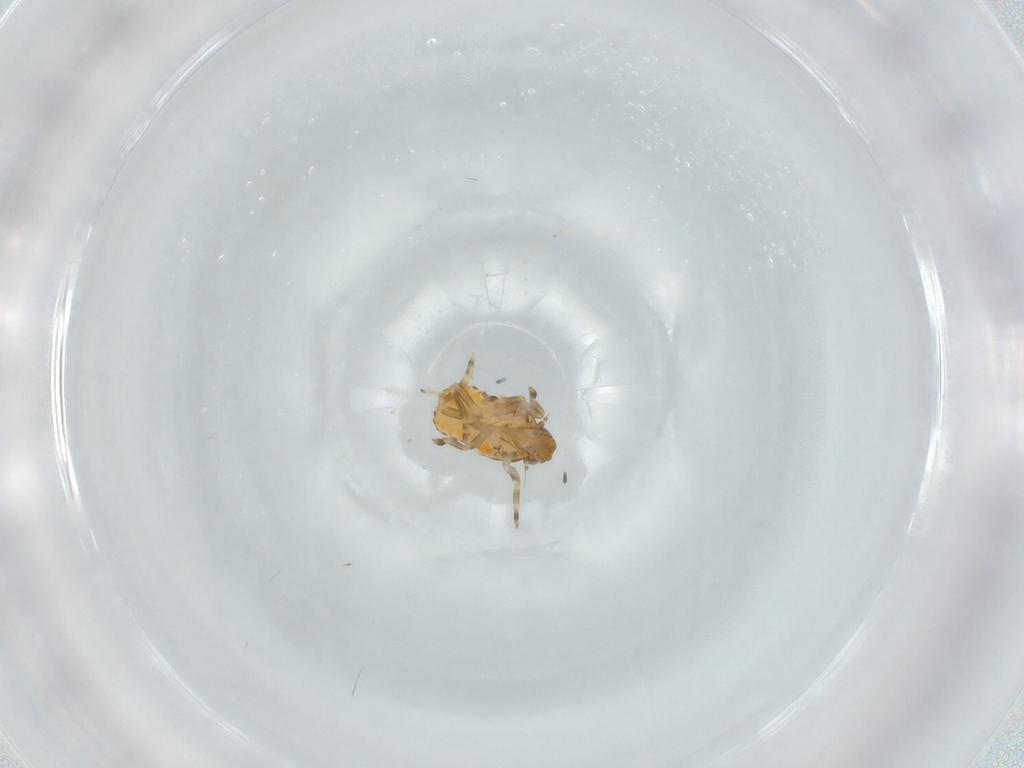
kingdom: Animalia
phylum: Arthropoda
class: Insecta
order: Hemiptera
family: Flatidae
